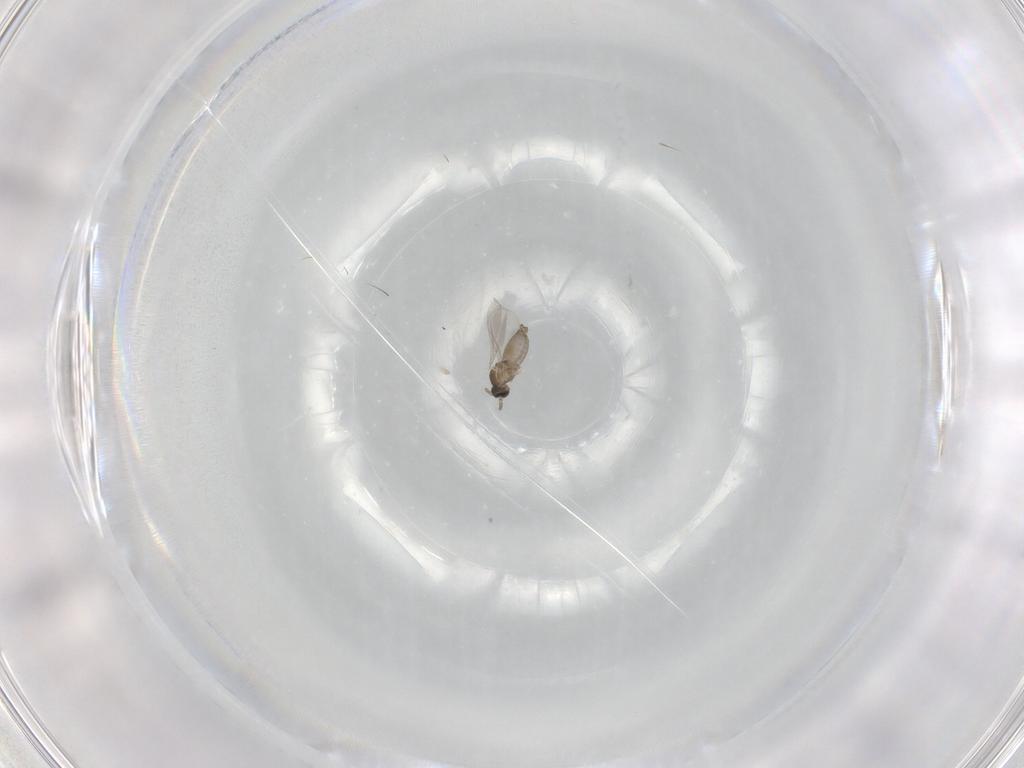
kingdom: Animalia
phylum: Arthropoda
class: Insecta
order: Diptera
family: Cecidomyiidae
